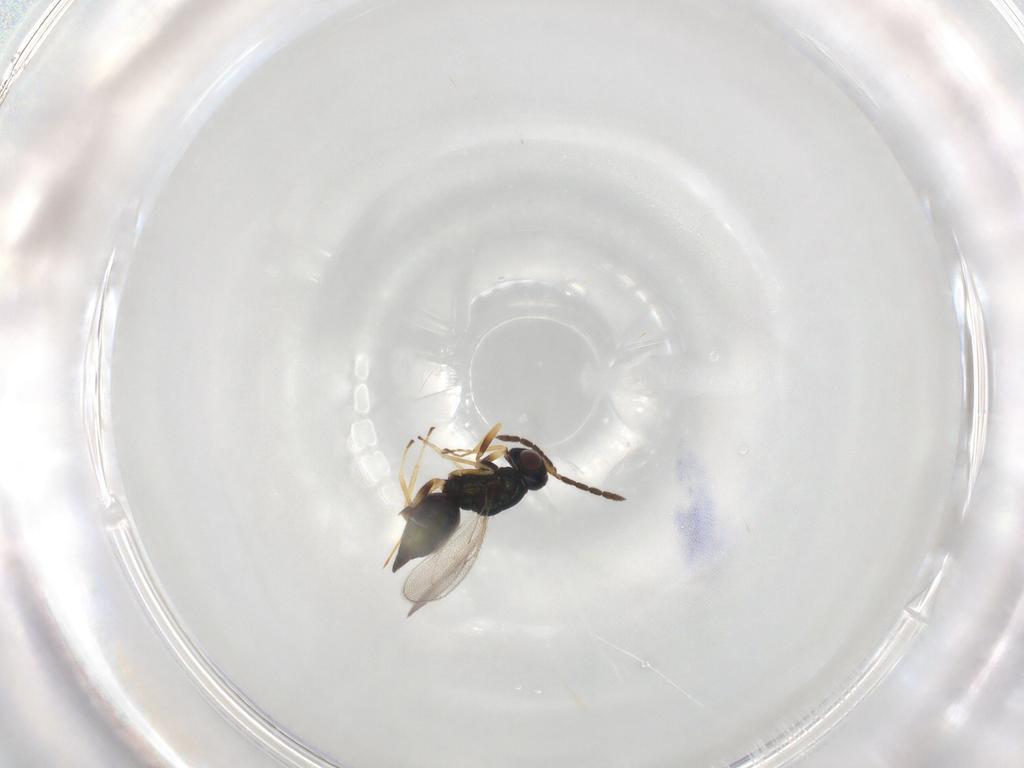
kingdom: Animalia
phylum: Arthropoda
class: Insecta
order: Hymenoptera
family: Eulophidae
